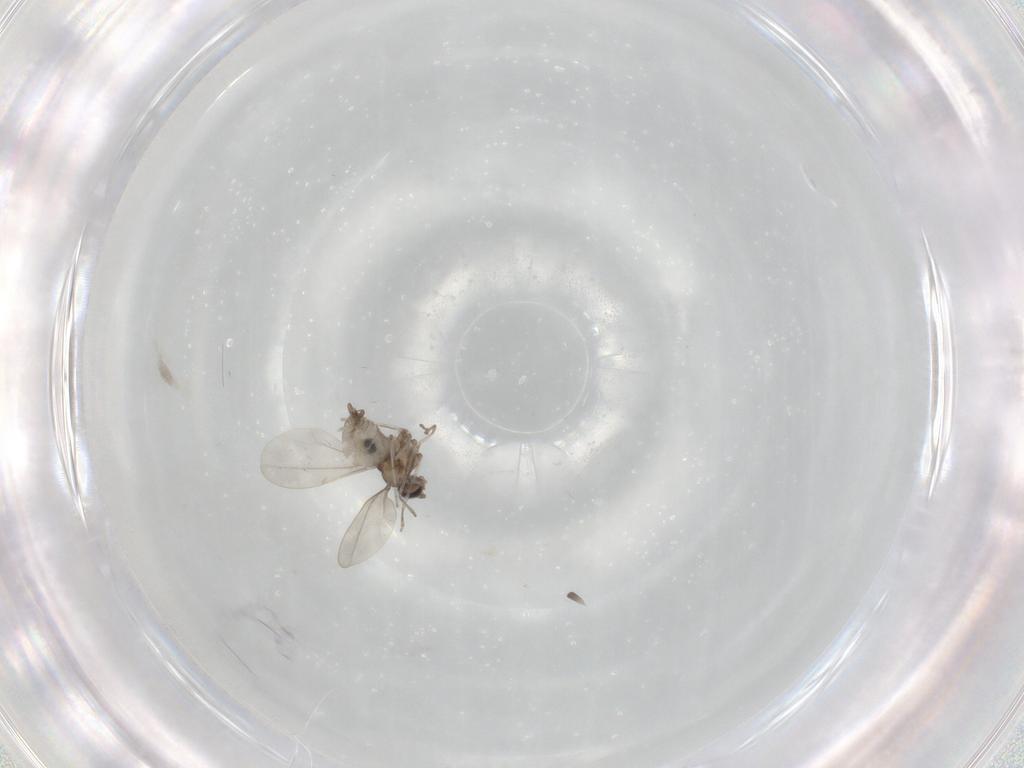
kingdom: Animalia
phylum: Arthropoda
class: Insecta
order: Diptera
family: Cecidomyiidae
